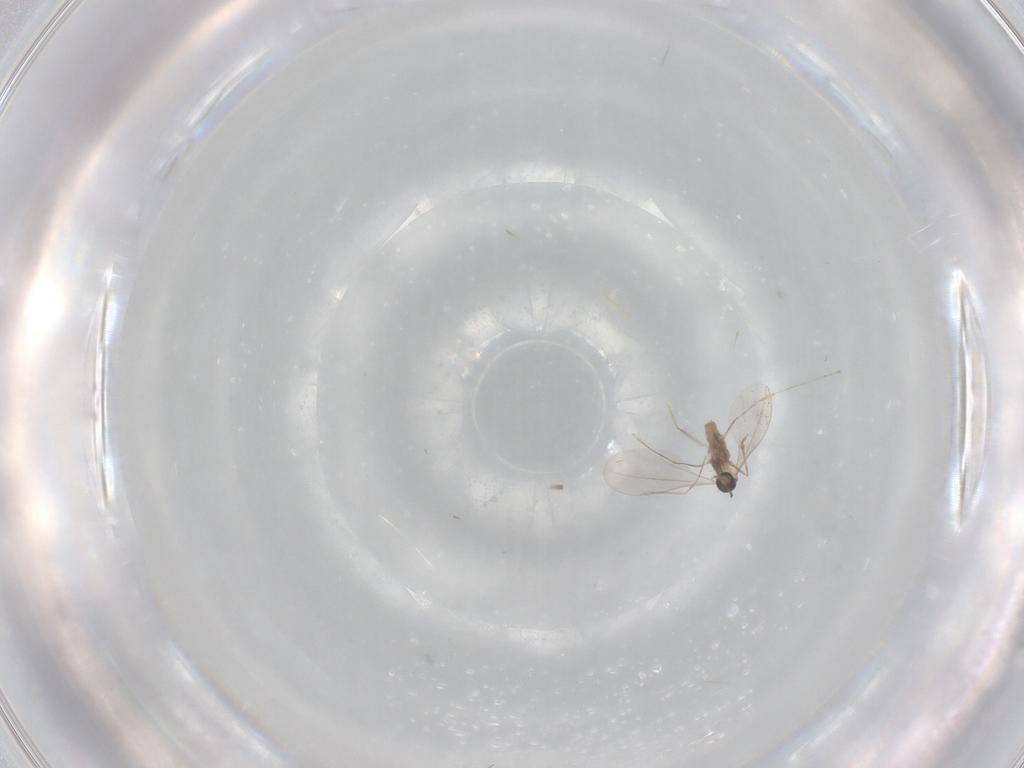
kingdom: Animalia
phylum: Arthropoda
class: Insecta
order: Diptera
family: Cecidomyiidae
